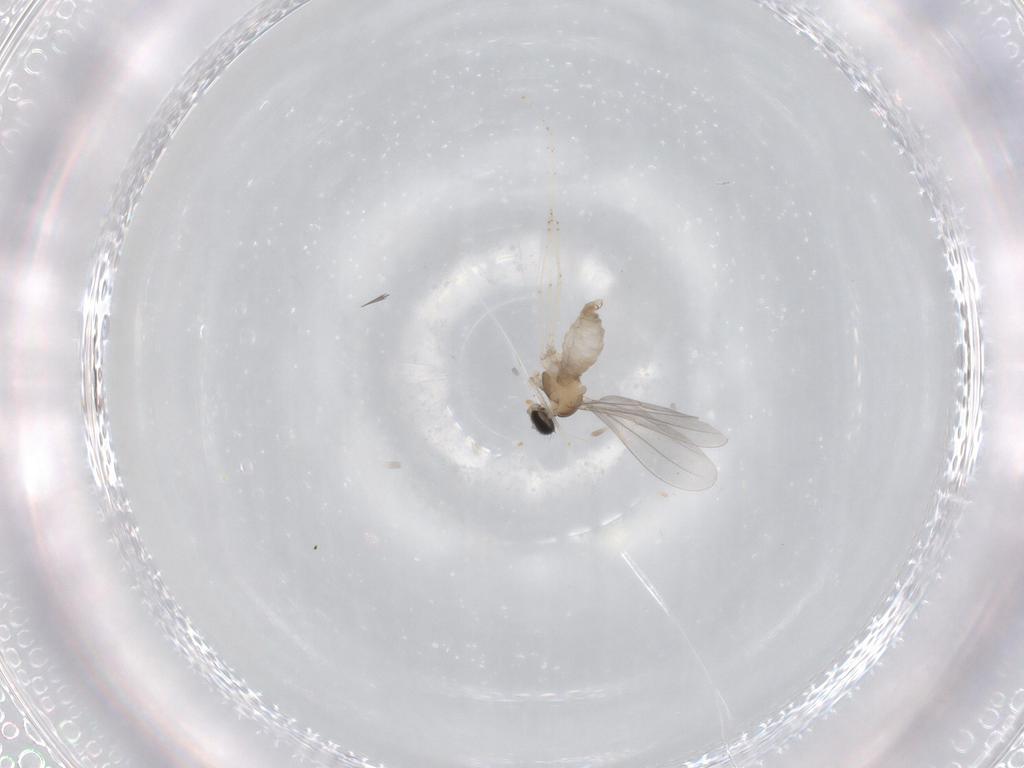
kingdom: Animalia
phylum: Arthropoda
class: Insecta
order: Diptera
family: Cecidomyiidae
